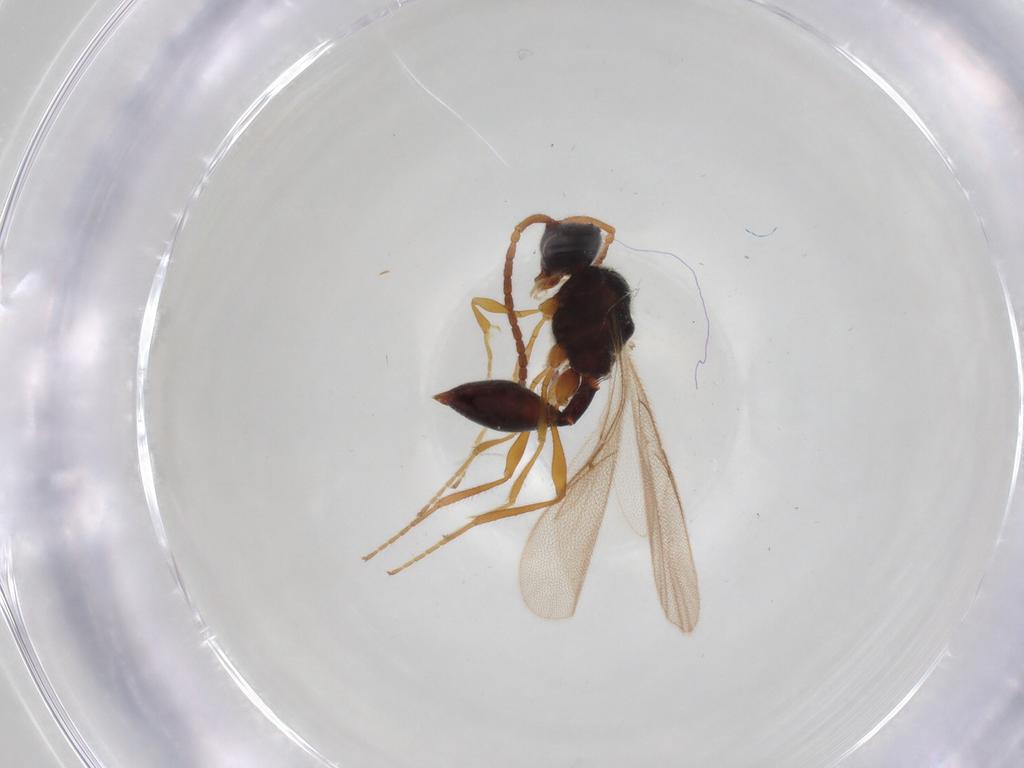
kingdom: Animalia
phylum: Arthropoda
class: Insecta
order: Hymenoptera
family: Diapriidae
